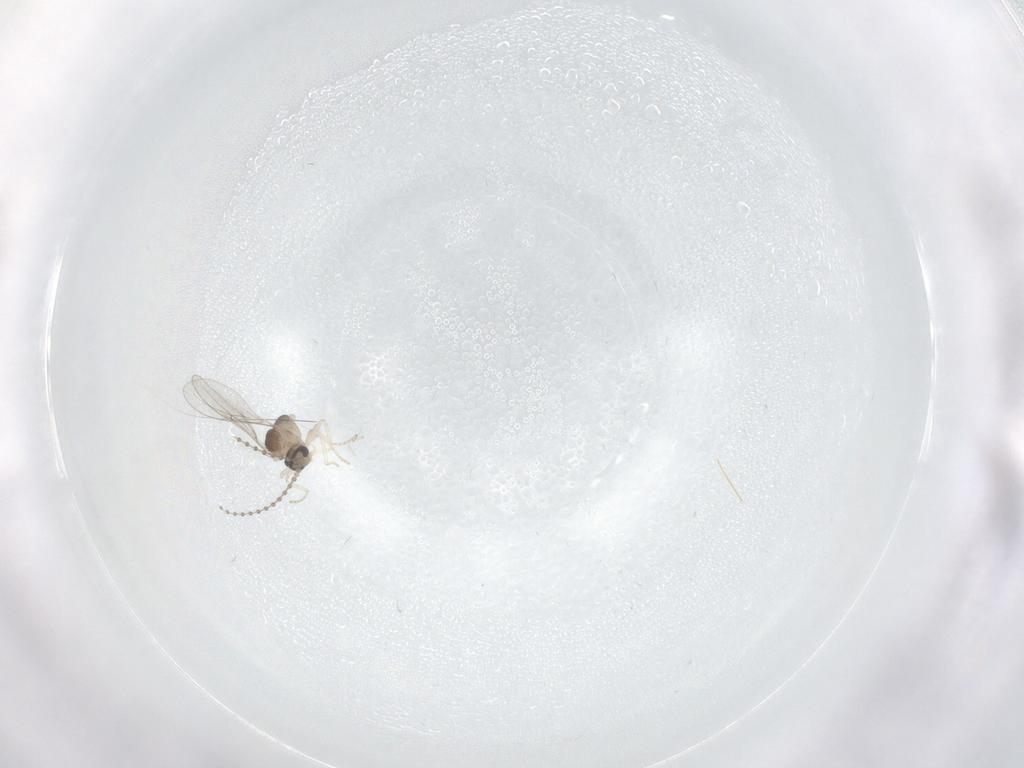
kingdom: Animalia
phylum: Arthropoda
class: Insecta
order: Diptera
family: Cecidomyiidae
